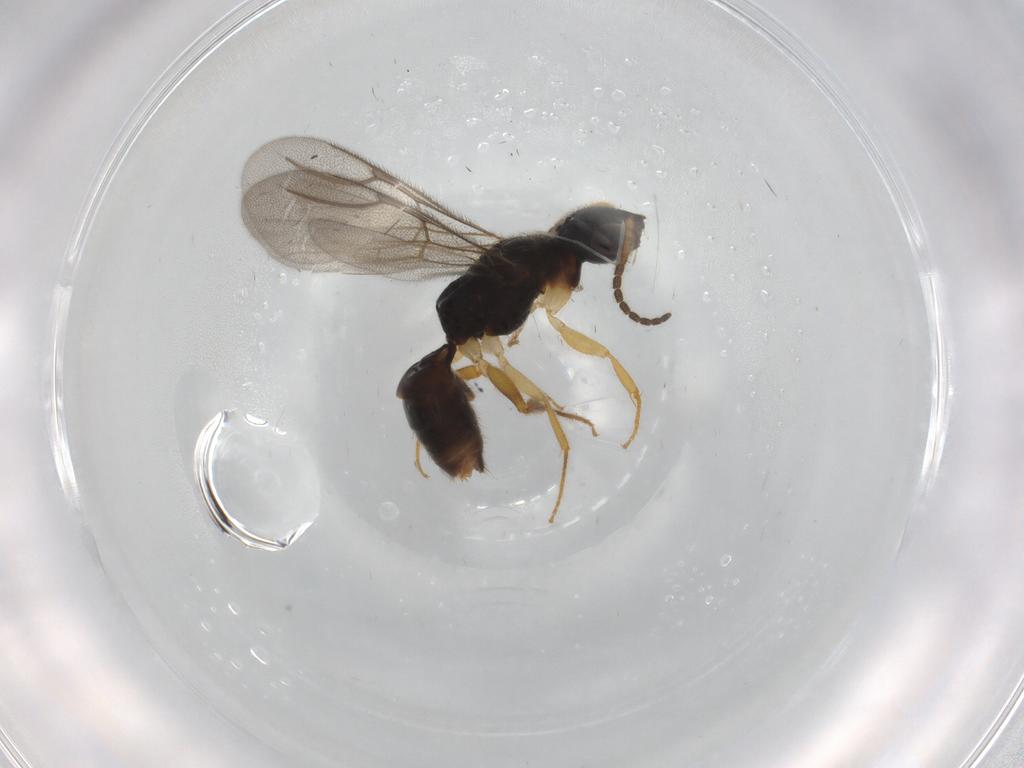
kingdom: Animalia
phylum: Arthropoda
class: Insecta
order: Hymenoptera
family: Bethylidae
